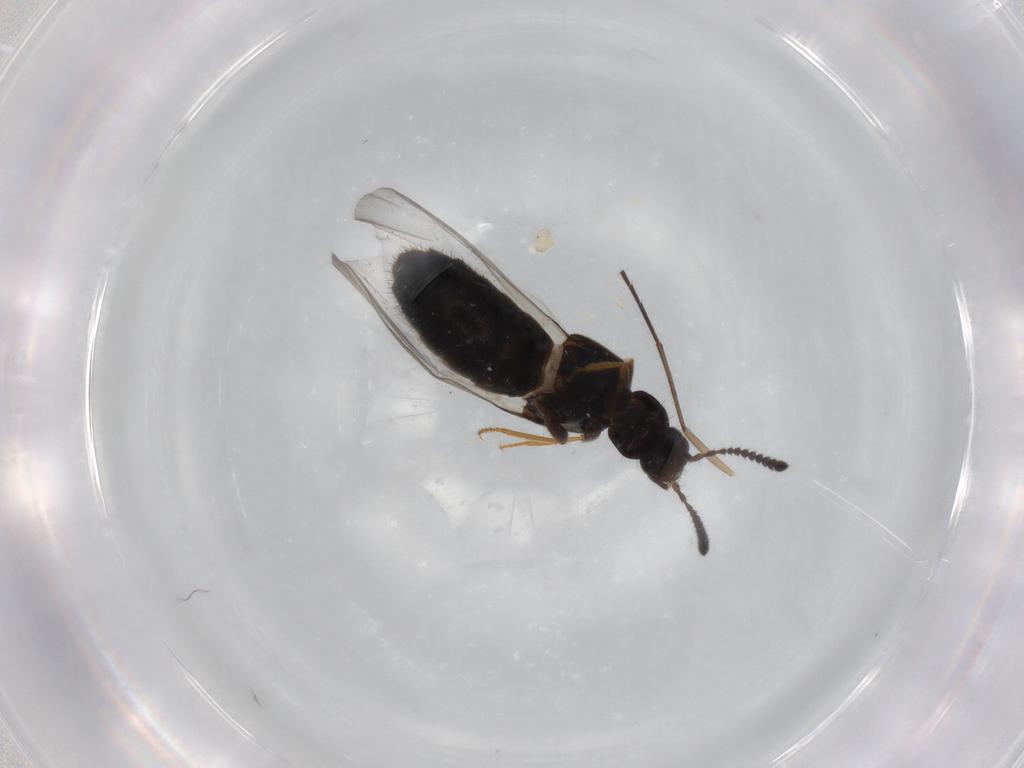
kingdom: Animalia
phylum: Arthropoda
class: Insecta
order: Coleoptera
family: Staphylinidae
